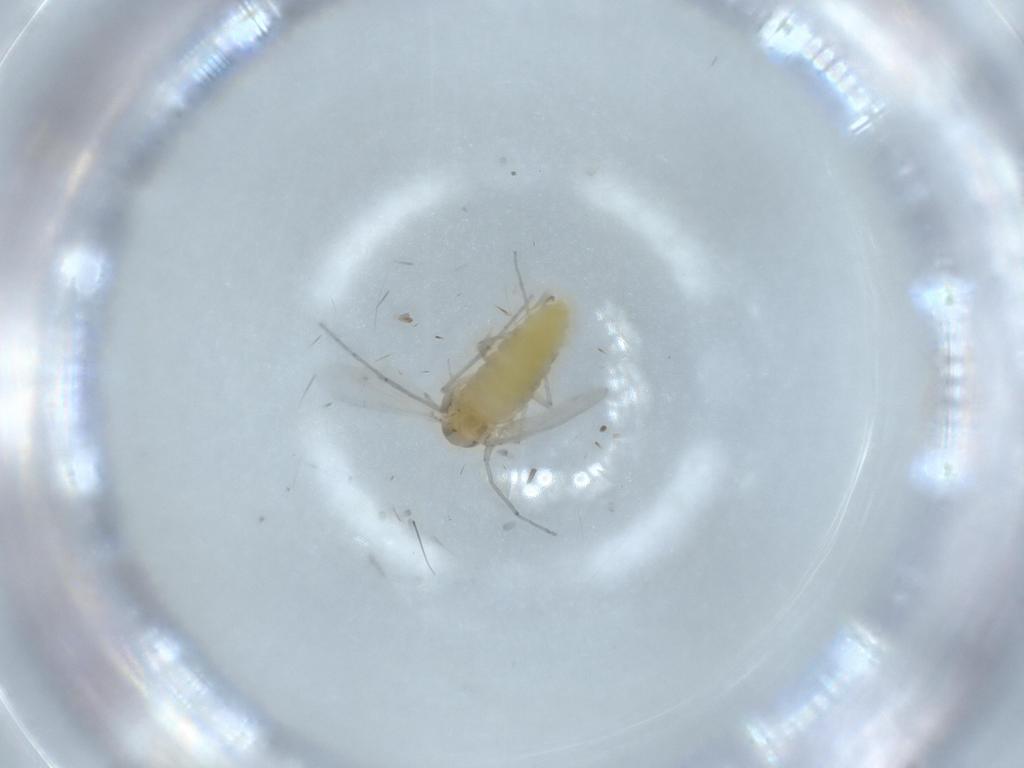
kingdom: Animalia
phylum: Arthropoda
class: Insecta
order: Diptera
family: Chironomidae
